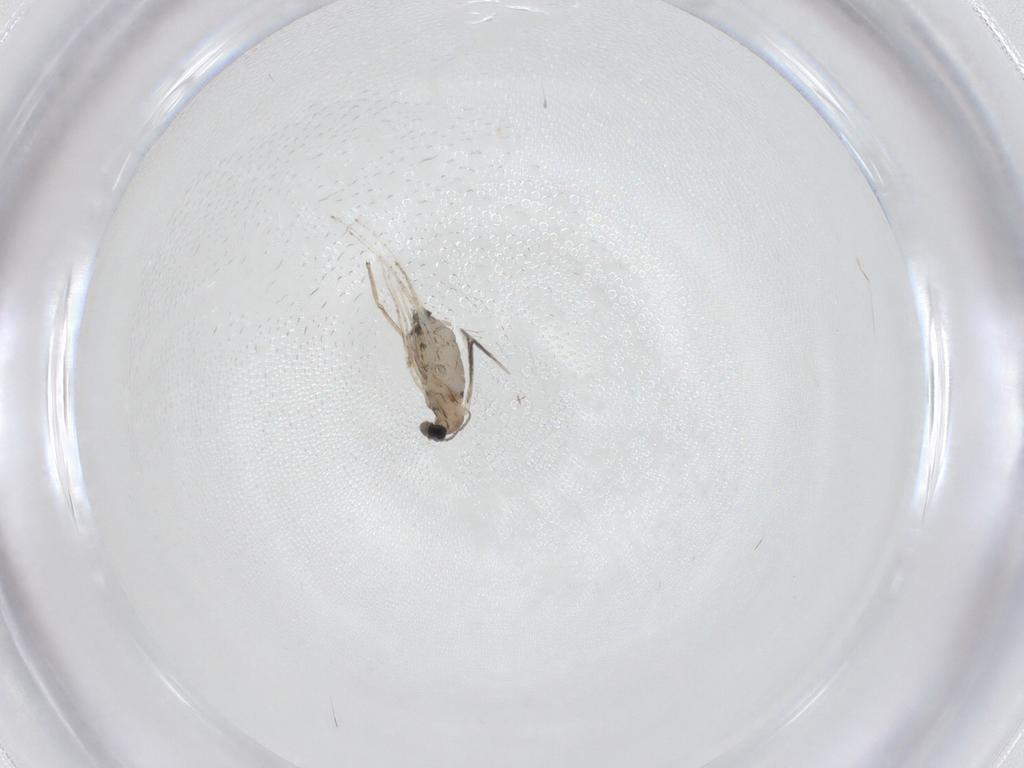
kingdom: Animalia
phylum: Arthropoda
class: Insecta
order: Diptera
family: Cecidomyiidae
